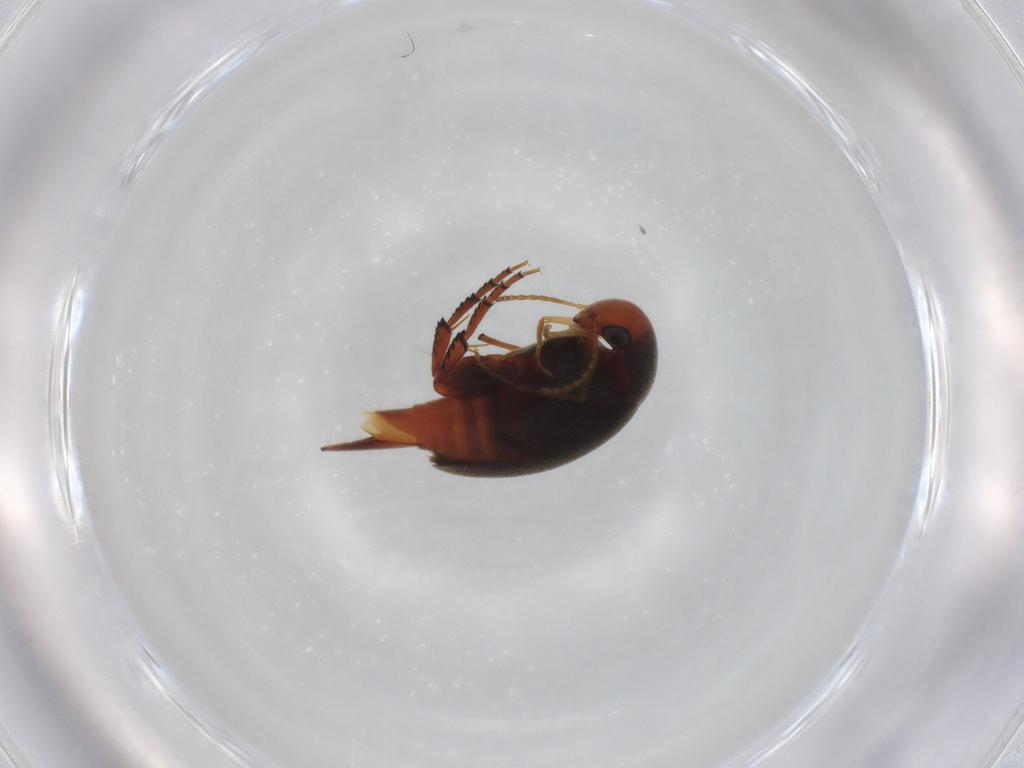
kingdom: Animalia
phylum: Arthropoda
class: Insecta
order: Coleoptera
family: Mordellidae
